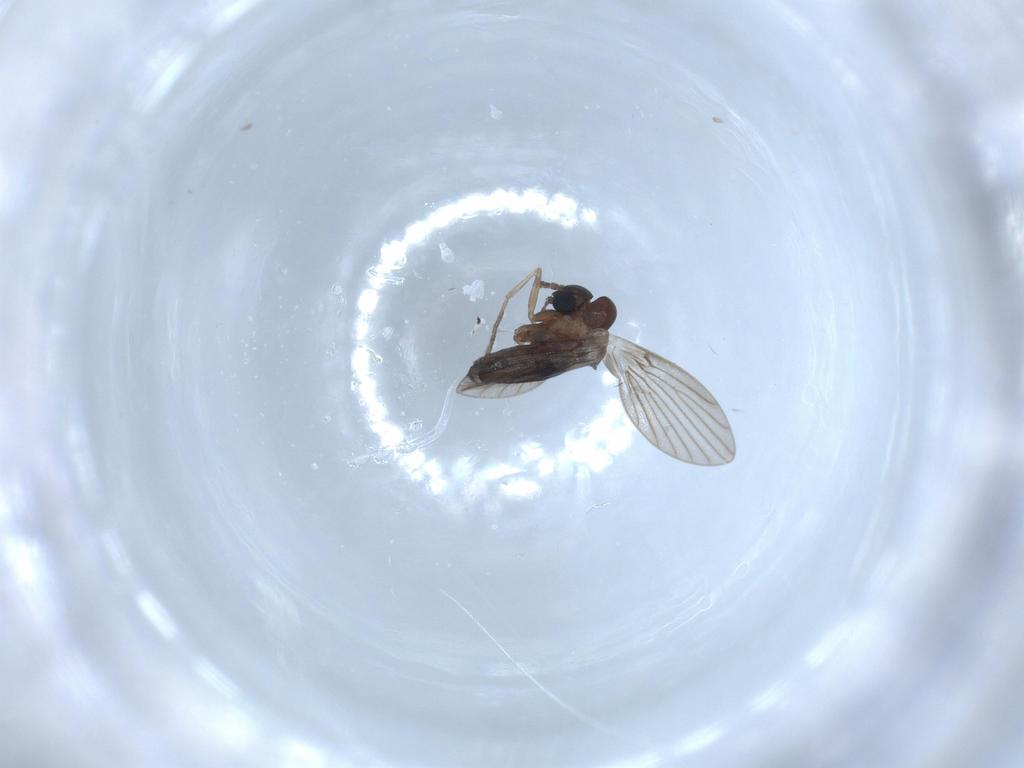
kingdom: Animalia
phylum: Arthropoda
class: Insecta
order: Diptera
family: Psychodidae
